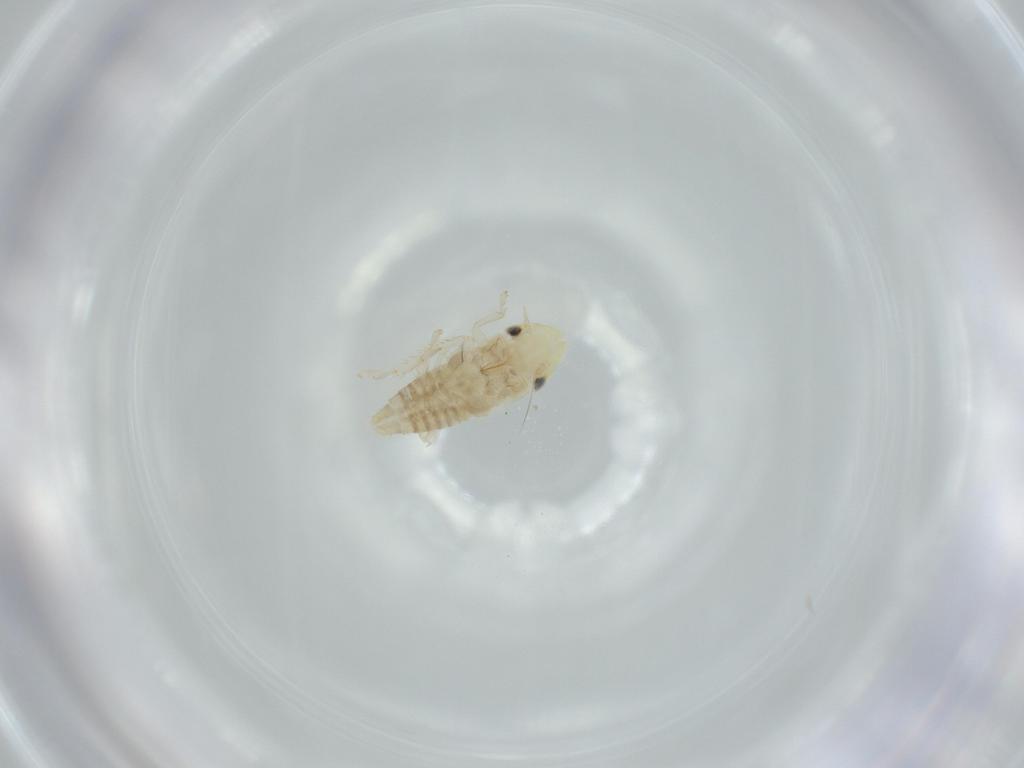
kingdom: Animalia
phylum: Arthropoda
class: Insecta
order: Hemiptera
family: Cicadellidae
